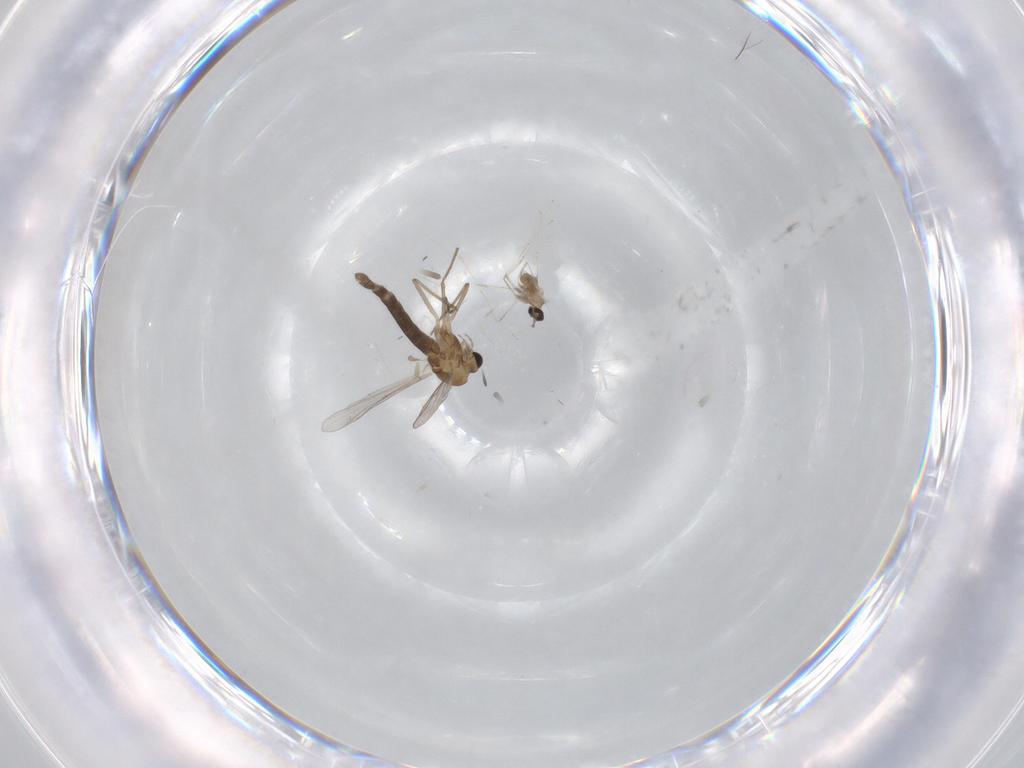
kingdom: Animalia
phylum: Arthropoda
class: Insecta
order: Diptera
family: Cecidomyiidae
